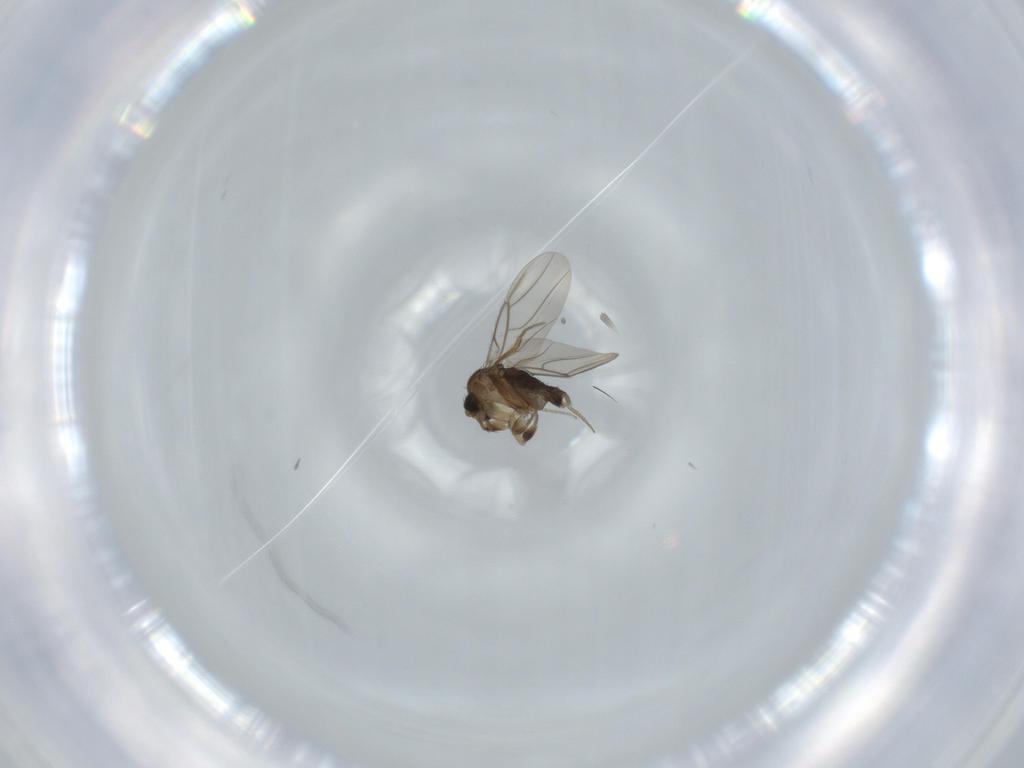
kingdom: Animalia
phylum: Arthropoda
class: Insecta
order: Diptera
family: Phoridae
